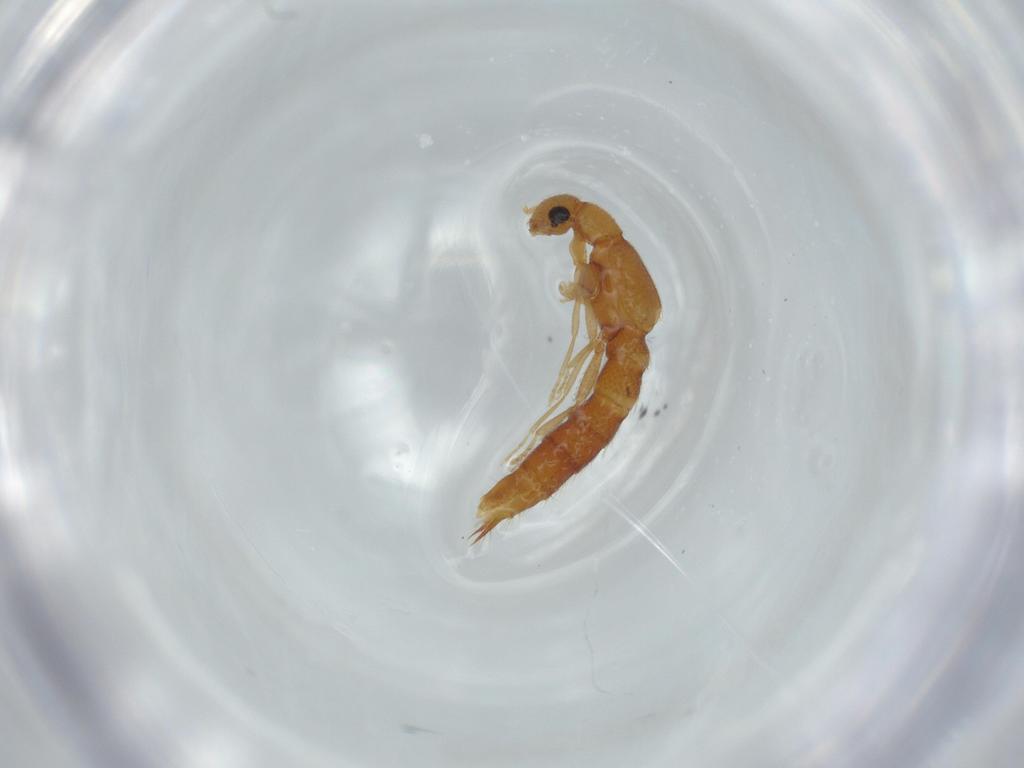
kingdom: Animalia
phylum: Arthropoda
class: Insecta
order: Coleoptera
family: Staphylinidae
